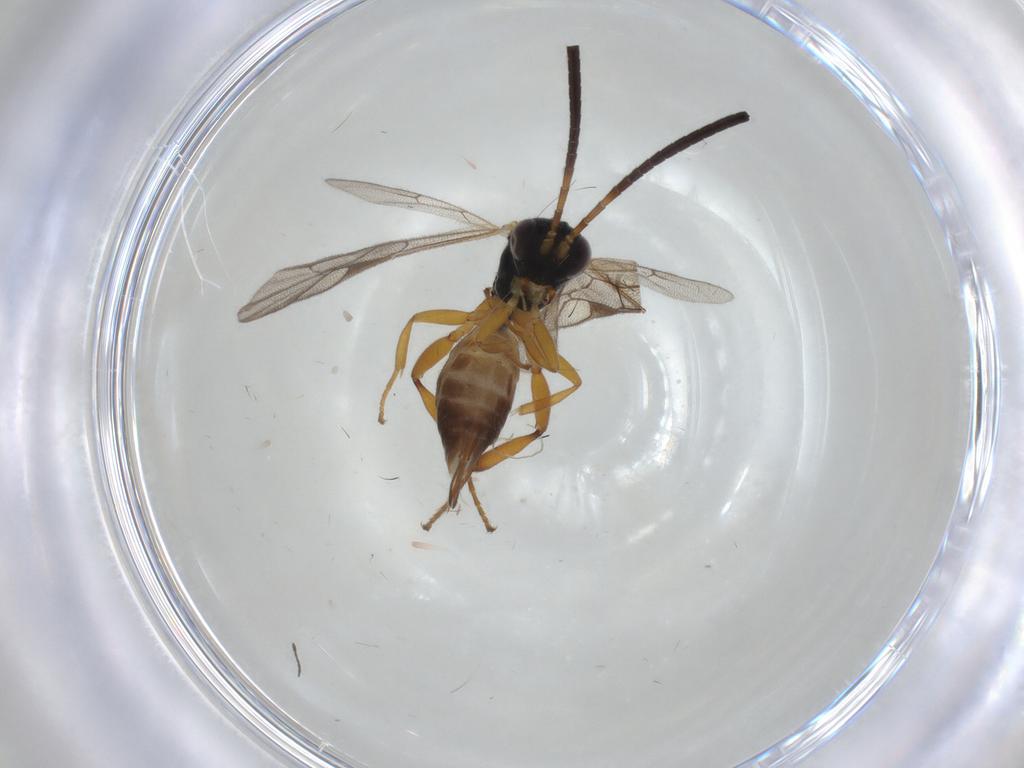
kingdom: Animalia
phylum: Arthropoda
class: Insecta
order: Hymenoptera
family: Ichneumonidae
